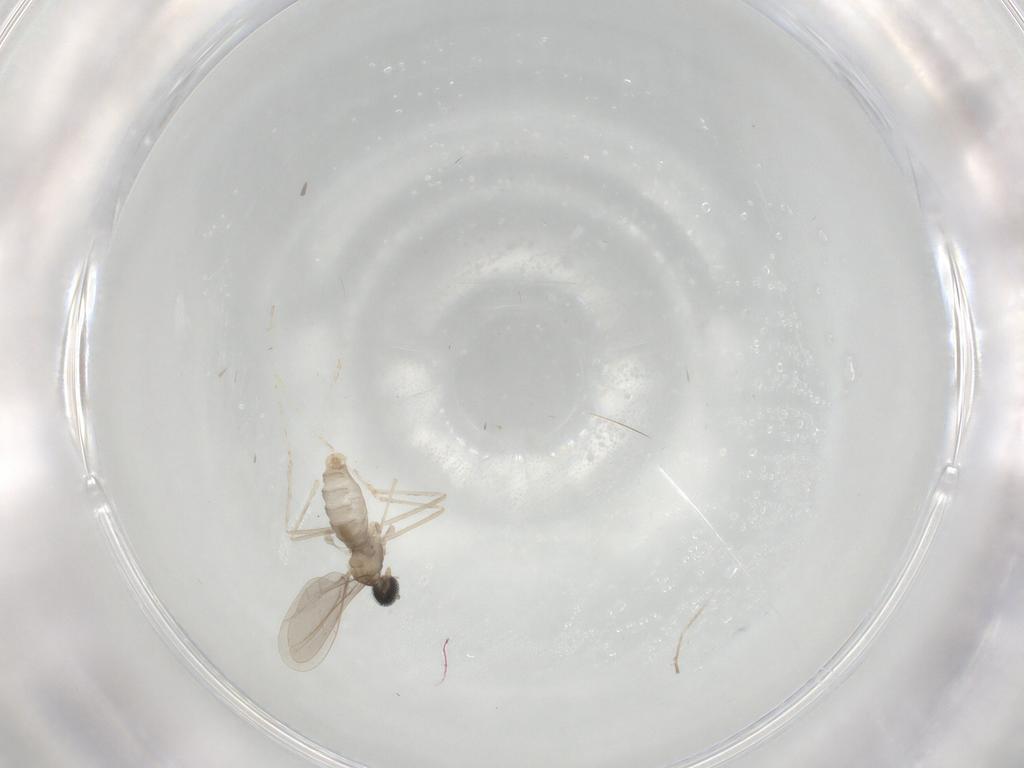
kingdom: Animalia
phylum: Arthropoda
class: Insecta
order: Diptera
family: Cecidomyiidae
